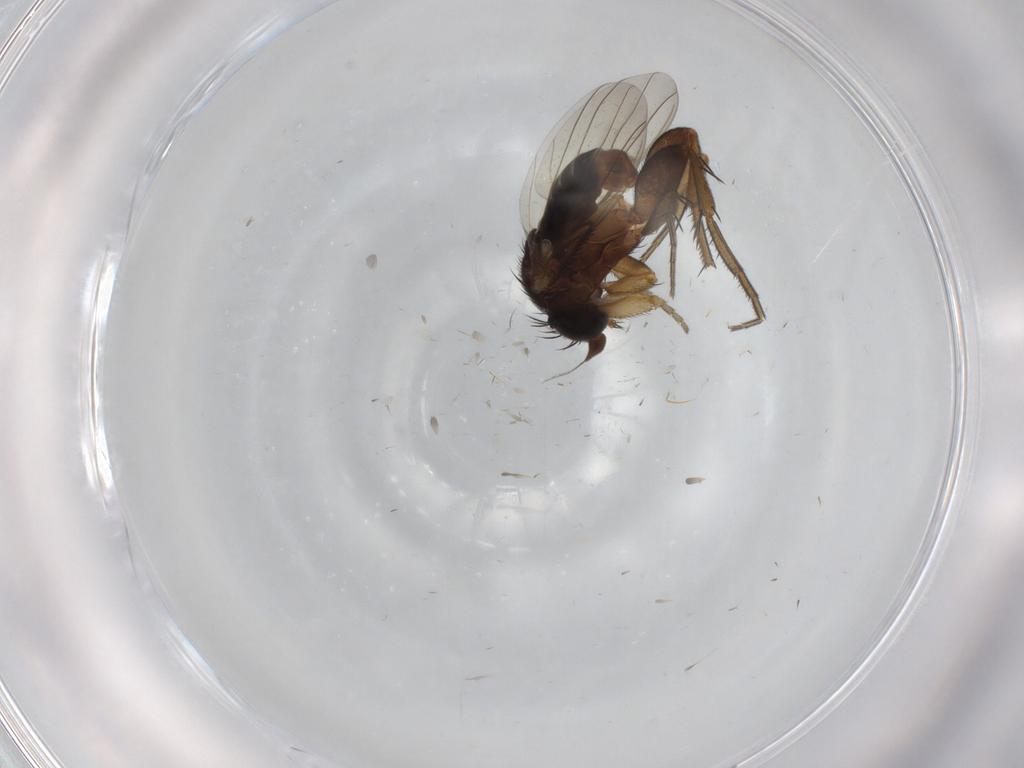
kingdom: Animalia
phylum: Arthropoda
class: Insecta
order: Diptera
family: Phoridae
